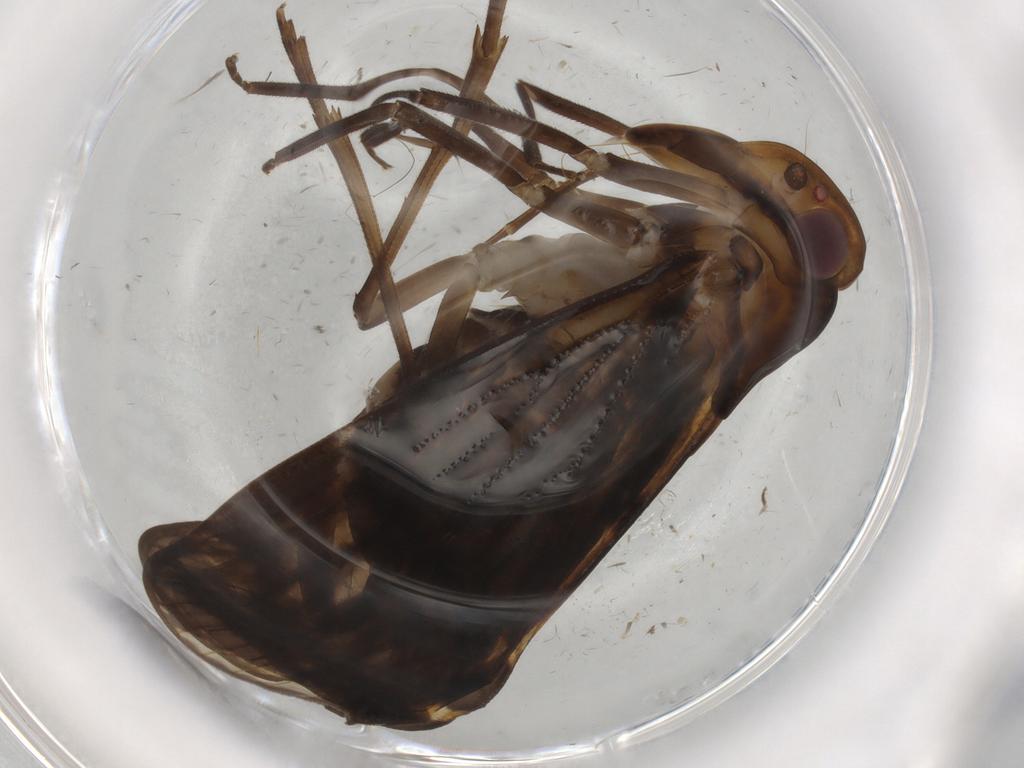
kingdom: Animalia
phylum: Arthropoda
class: Insecta
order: Hemiptera
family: Cixiidae
